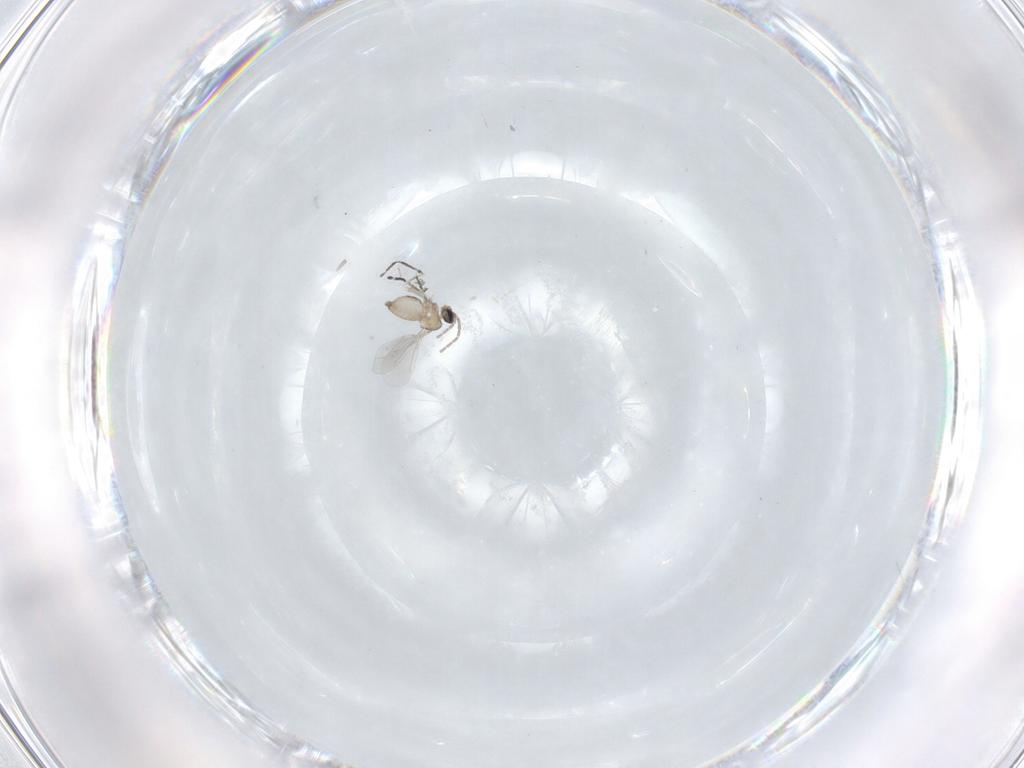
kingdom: Animalia
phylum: Arthropoda
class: Insecta
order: Diptera
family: Cecidomyiidae
